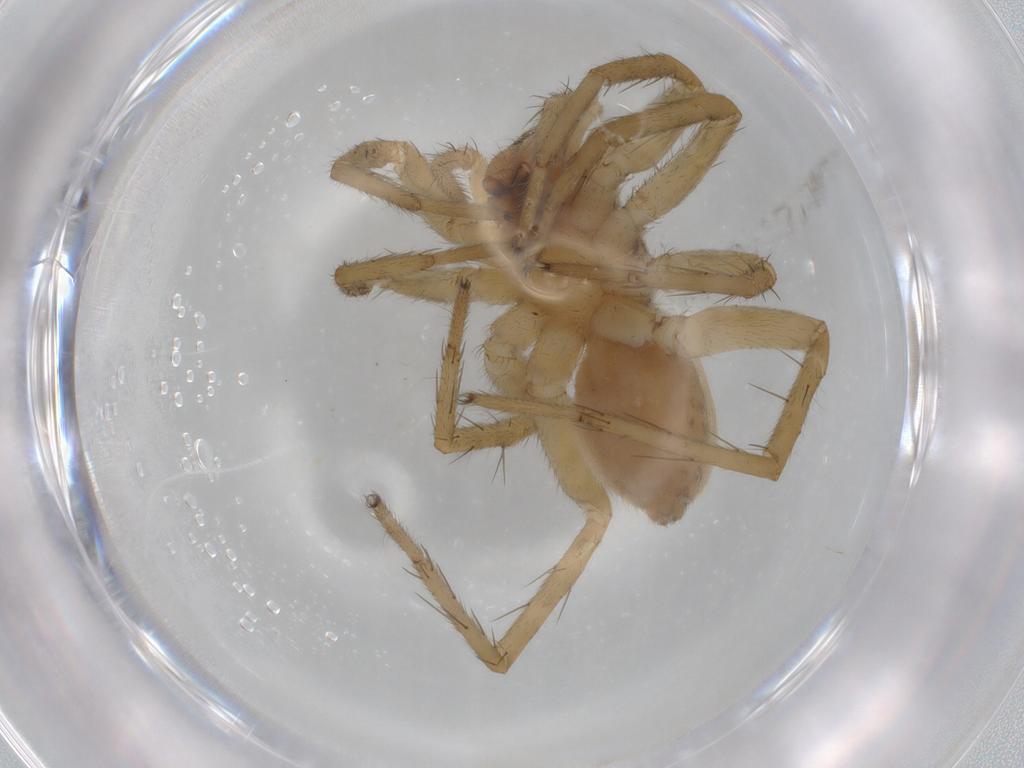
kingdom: Animalia
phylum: Arthropoda
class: Arachnida
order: Araneae
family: Lycosidae
